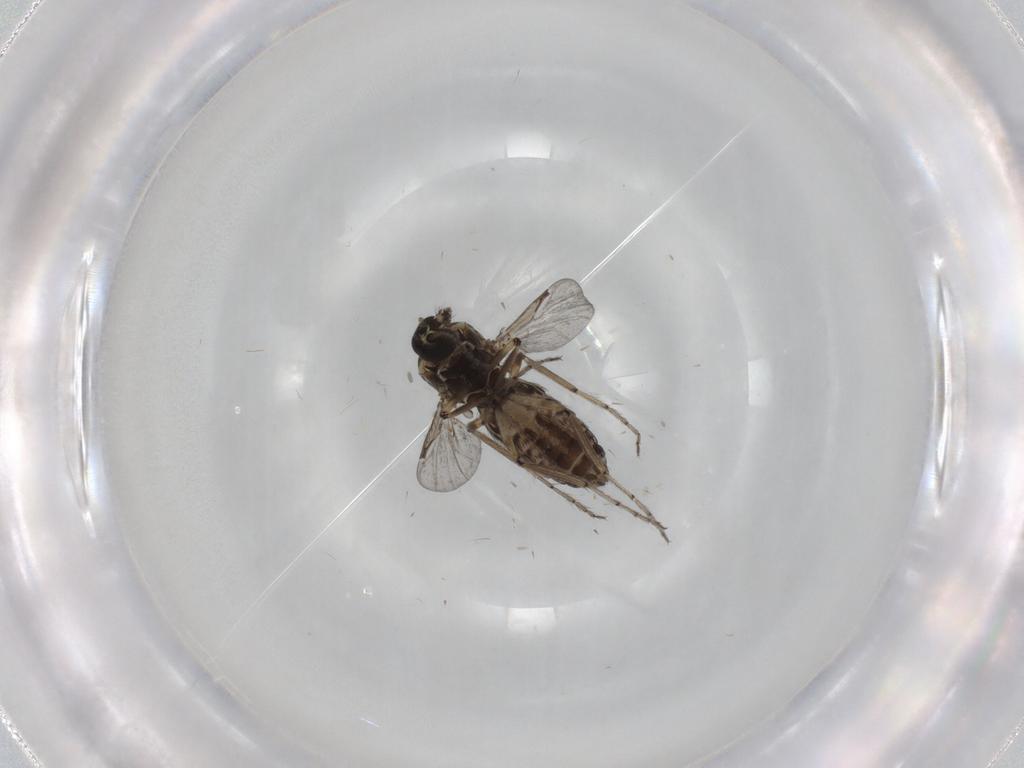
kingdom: Animalia
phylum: Arthropoda
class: Insecta
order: Diptera
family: Ceratopogonidae
